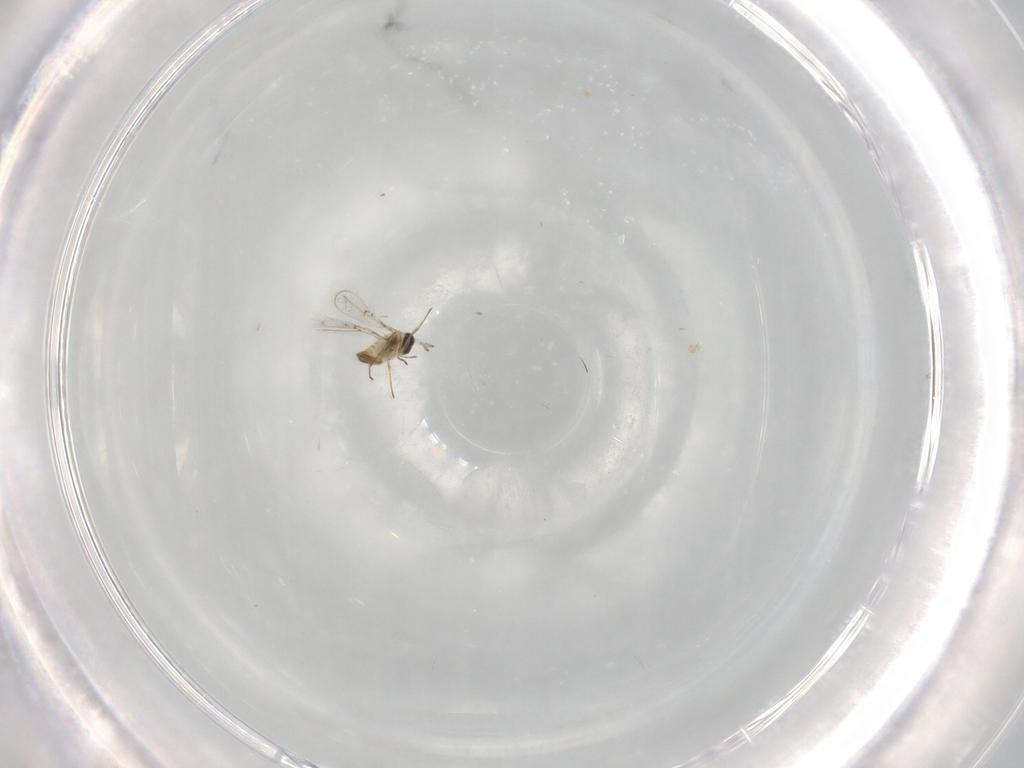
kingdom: Animalia
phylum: Arthropoda
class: Insecta
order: Hymenoptera
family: Trichogrammatidae
